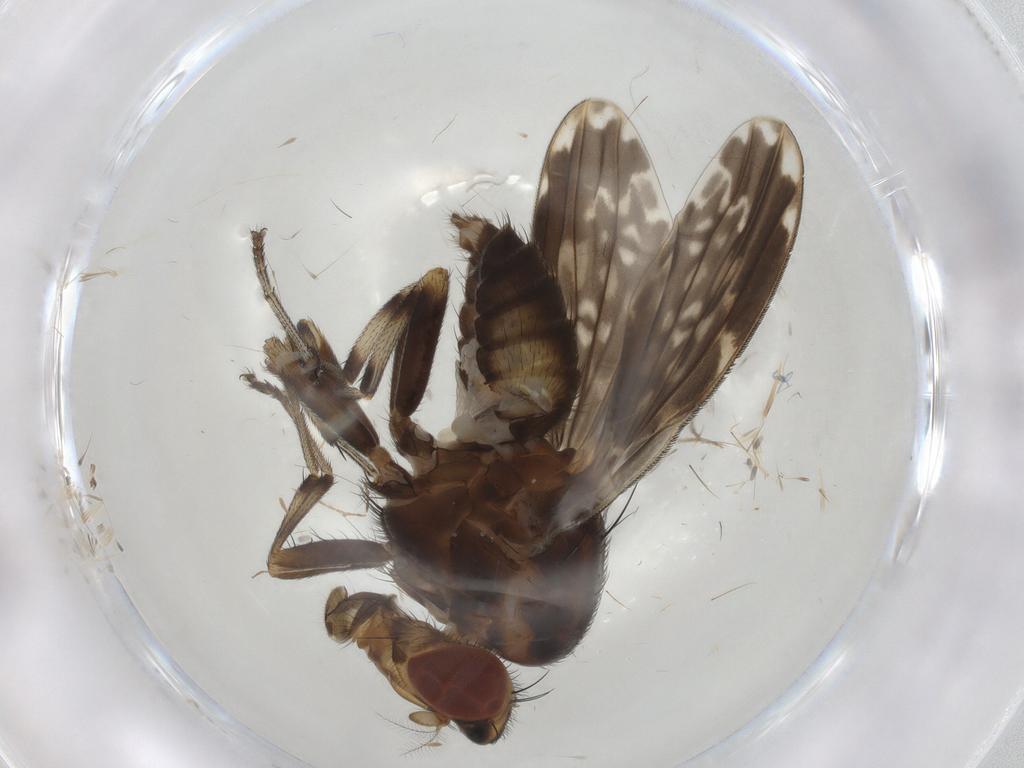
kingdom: Animalia
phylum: Arthropoda
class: Insecta
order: Diptera
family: Lauxaniidae
